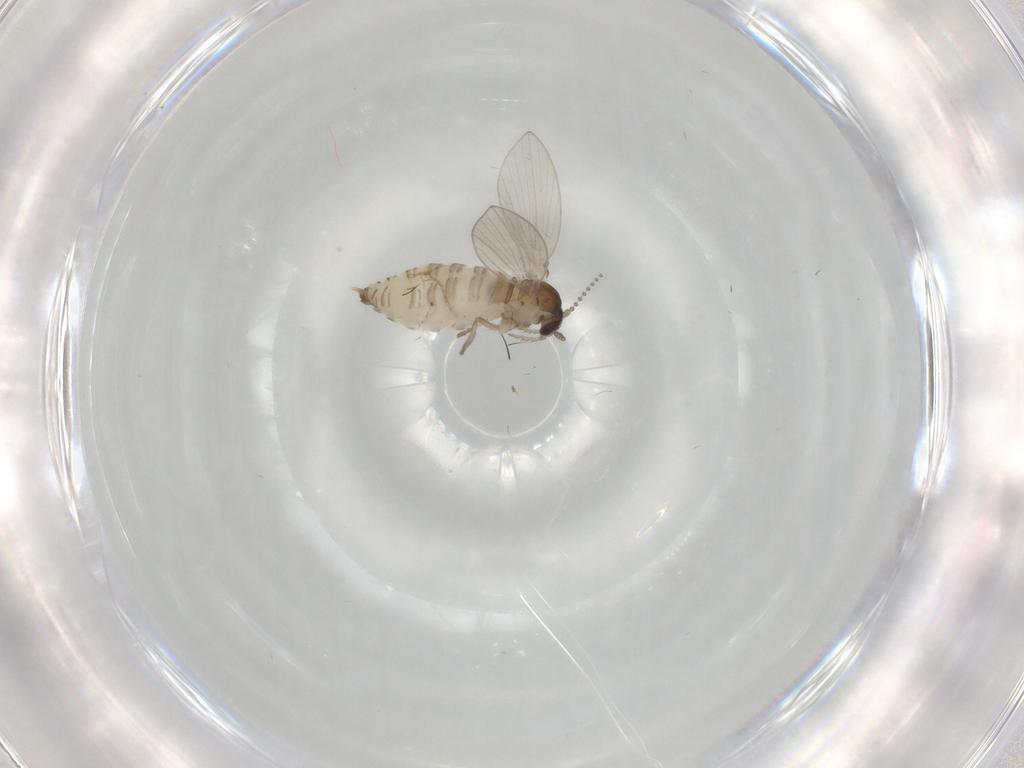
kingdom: Animalia
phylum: Arthropoda
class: Insecta
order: Diptera
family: Psychodidae
